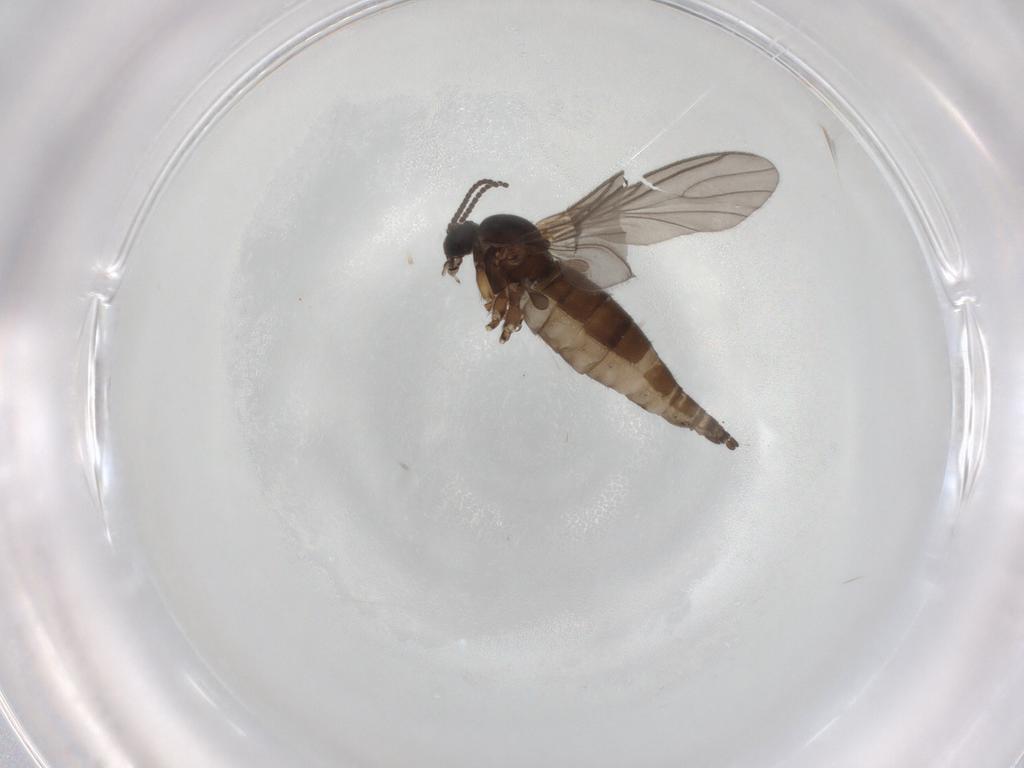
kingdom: Animalia
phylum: Arthropoda
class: Insecta
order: Diptera
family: Sciaridae
